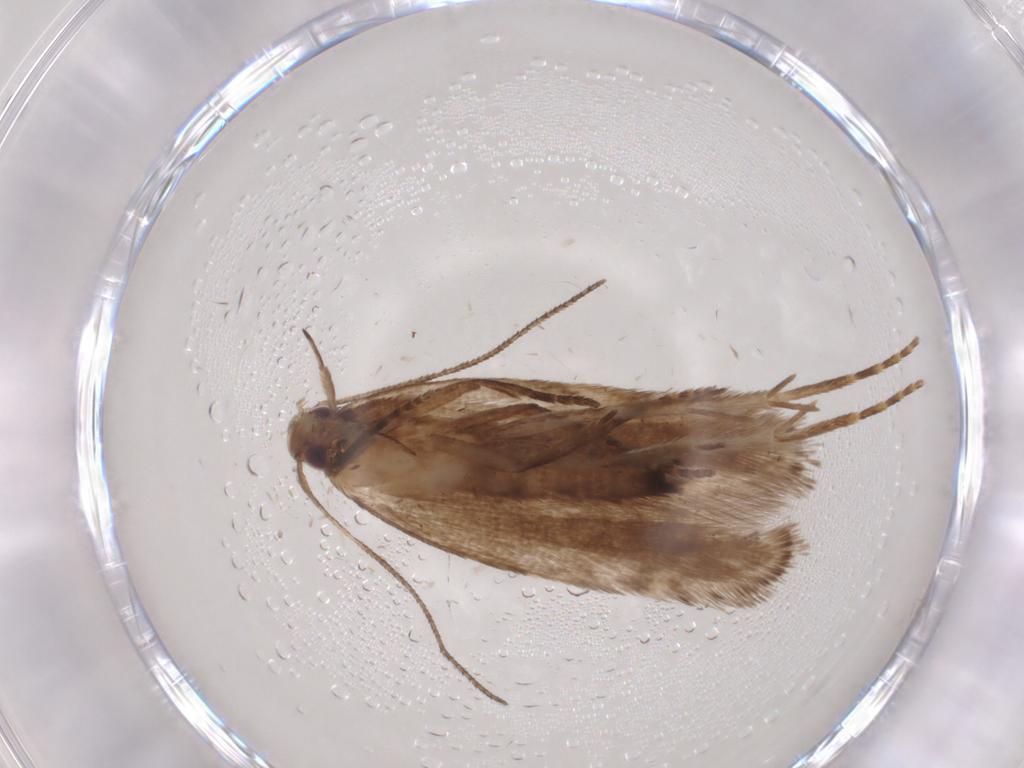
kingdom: Animalia
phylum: Arthropoda
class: Insecta
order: Lepidoptera
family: Gelechiidae
